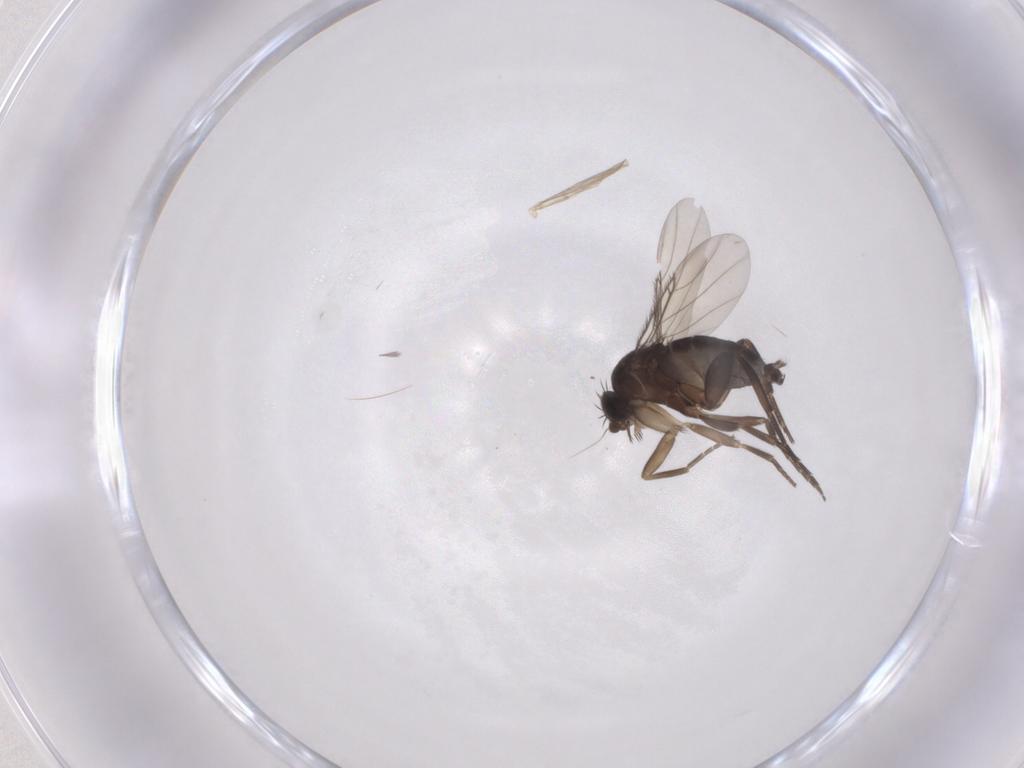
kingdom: Animalia
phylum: Arthropoda
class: Insecta
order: Diptera
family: Phoridae
